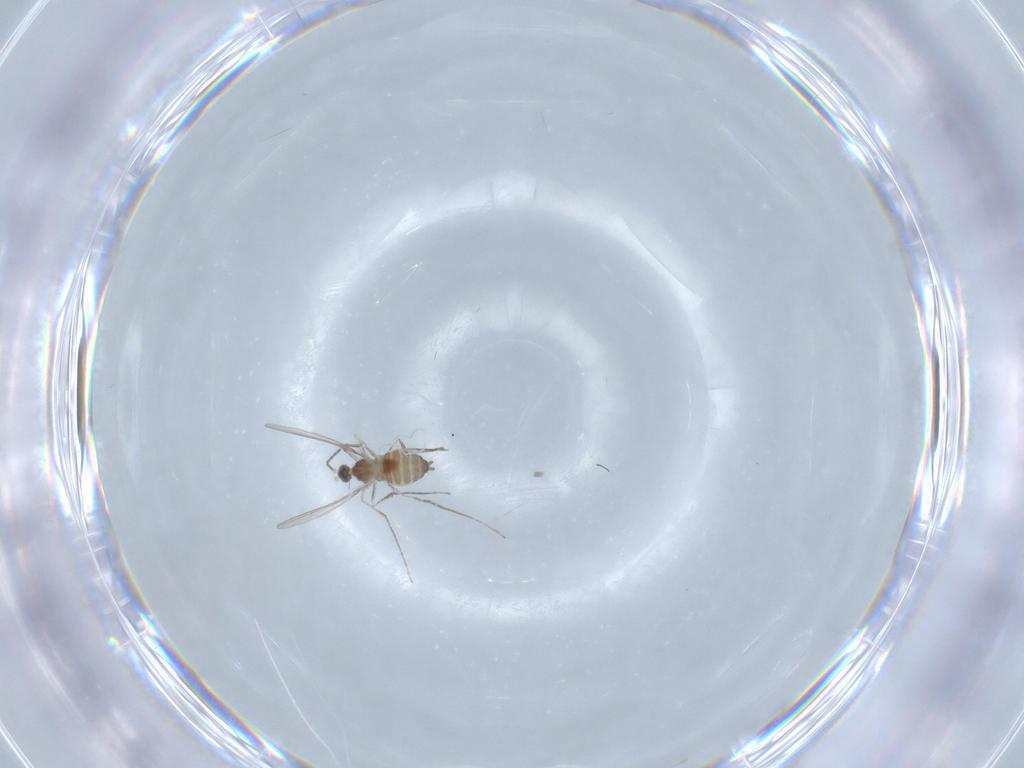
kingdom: Animalia
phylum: Arthropoda
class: Insecta
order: Diptera
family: Cecidomyiidae
